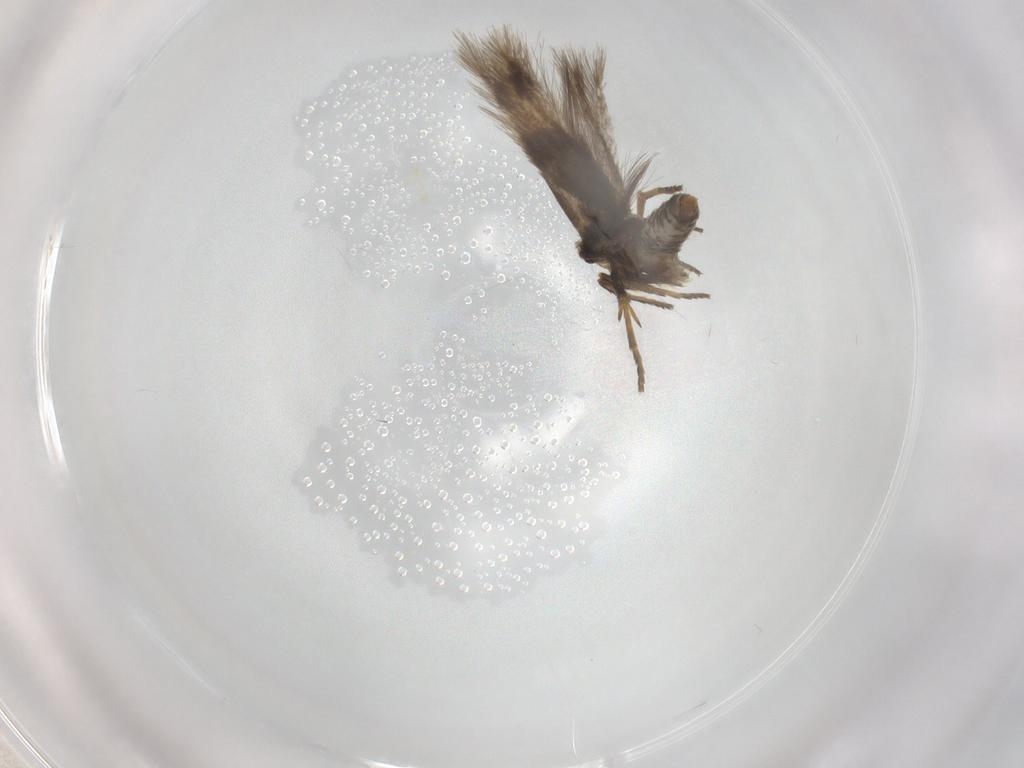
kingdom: Animalia
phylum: Arthropoda
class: Insecta
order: Lepidoptera
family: Nepticulidae
